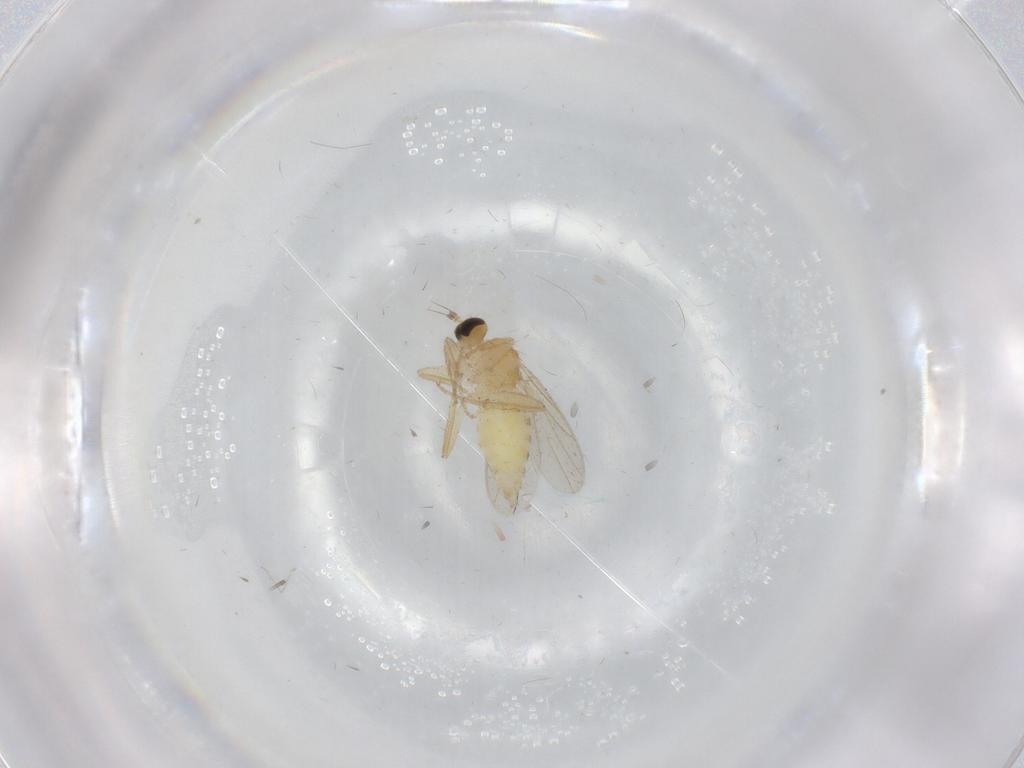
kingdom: Animalia
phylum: Arthropoda
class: Insecta
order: Diptera
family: Hybotidae
